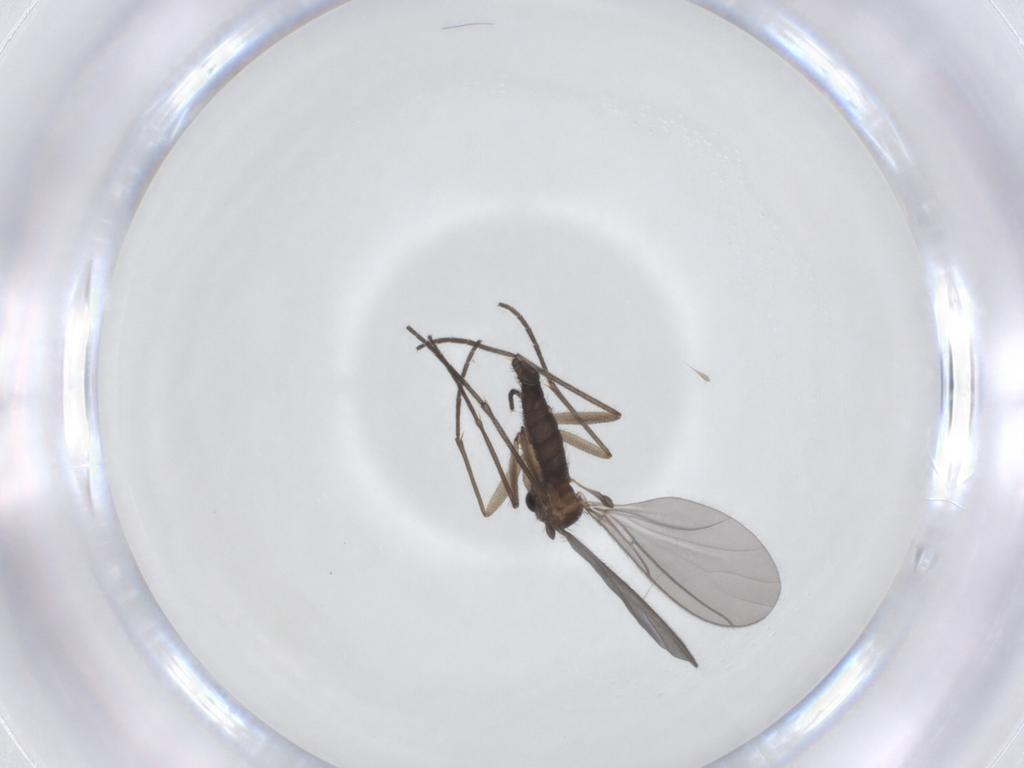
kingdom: Animalia
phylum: Arthropoda
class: Insecta
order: Diptera
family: Sciaridae
